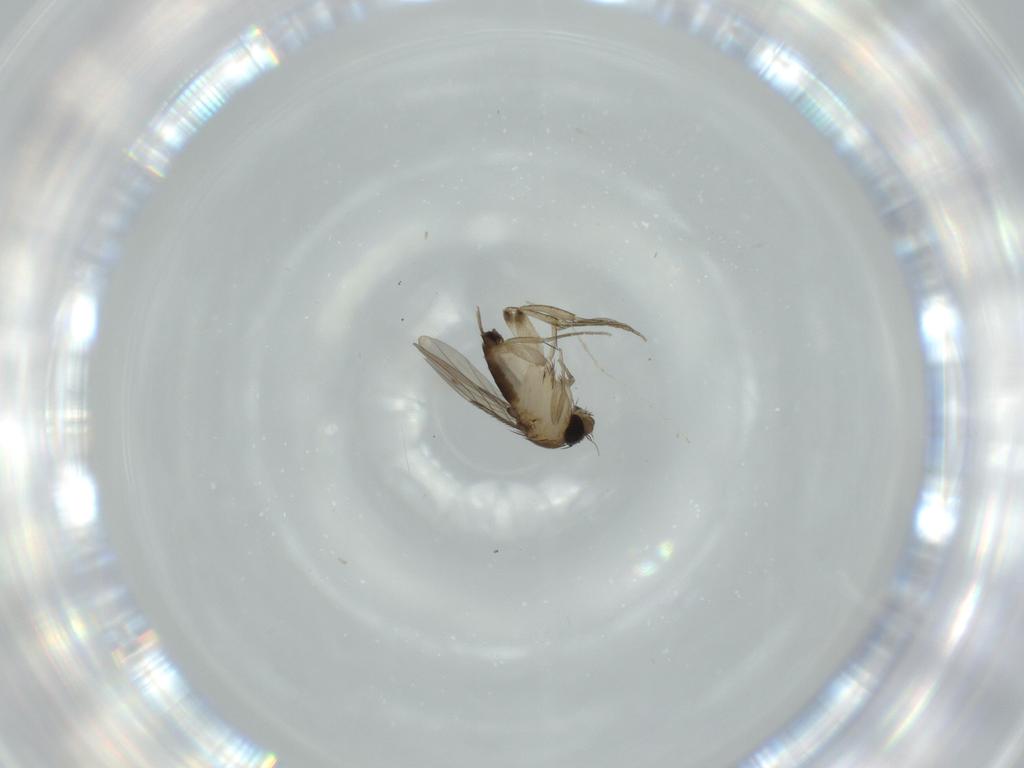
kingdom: Animalia
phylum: Arthropoda
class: Insecta
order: Diptera
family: Phoridae
